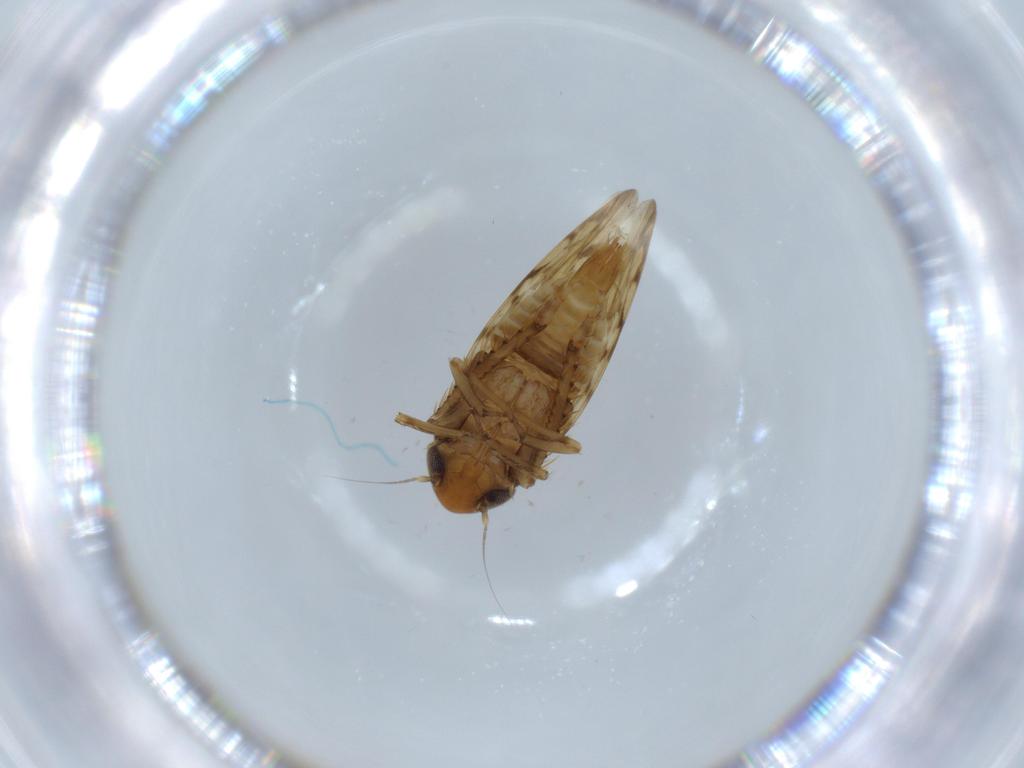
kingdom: Animalia
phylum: Arthropoda
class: Insecta
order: Hemiptera
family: Cicadellidae
